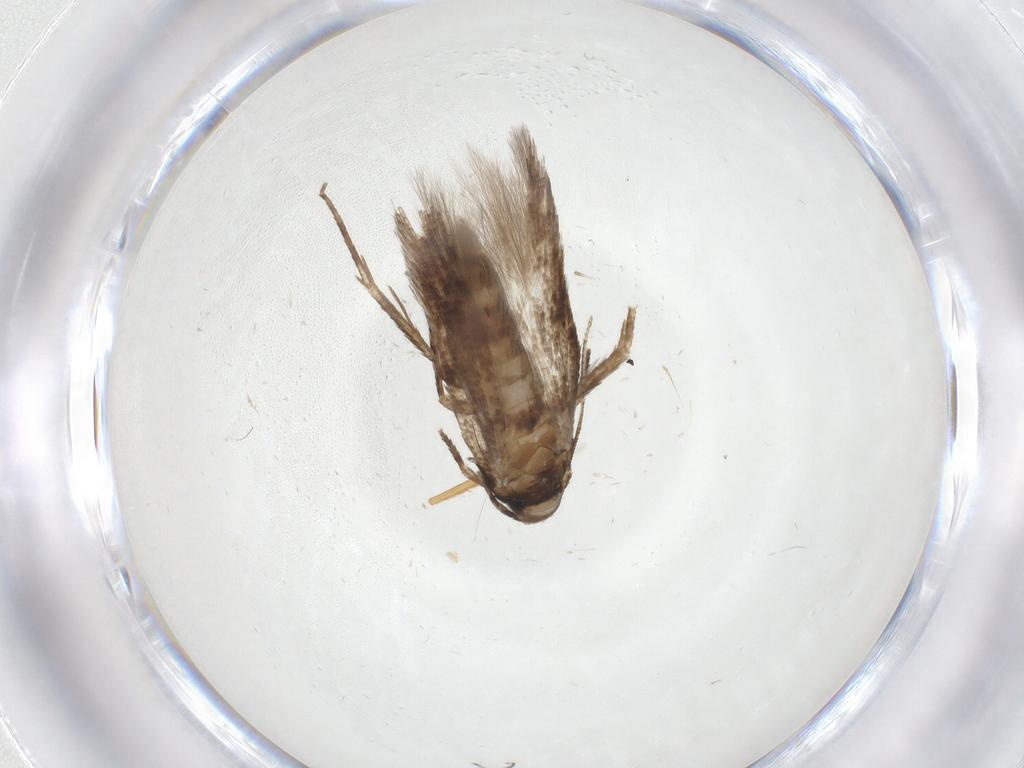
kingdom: Animalia
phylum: Arthropoda
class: Insecta
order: Lepidoptera
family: Cosmopterigidae
